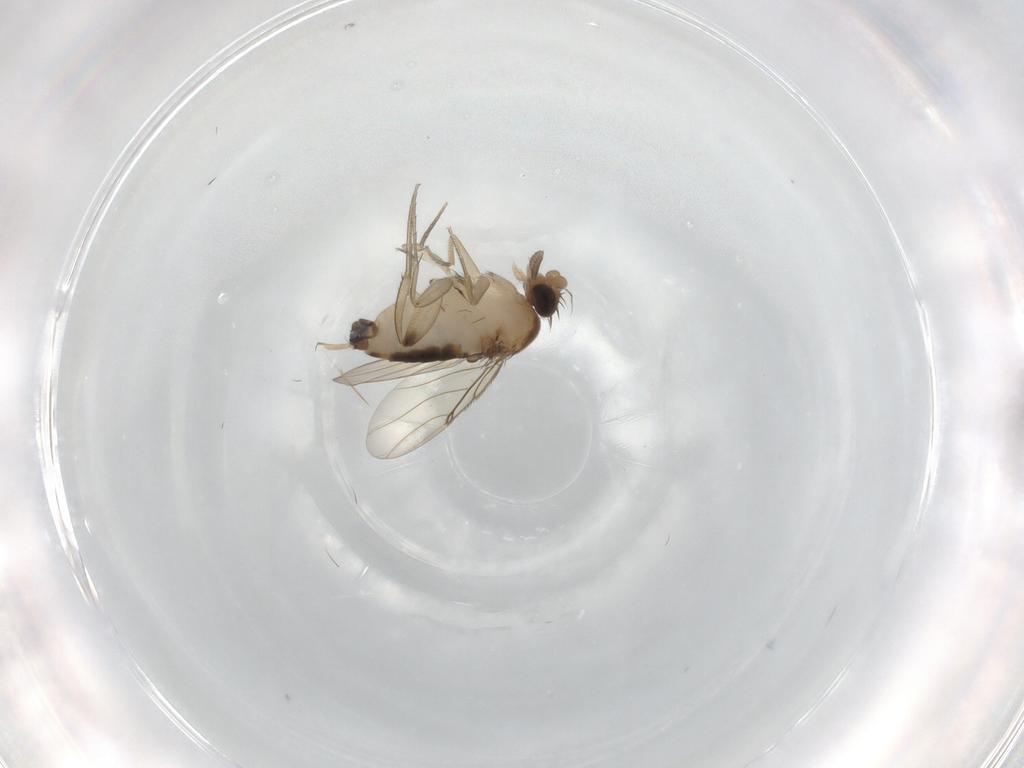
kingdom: Animalia
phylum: Arthropoda
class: Insecta
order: Diptera
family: Phoridae
